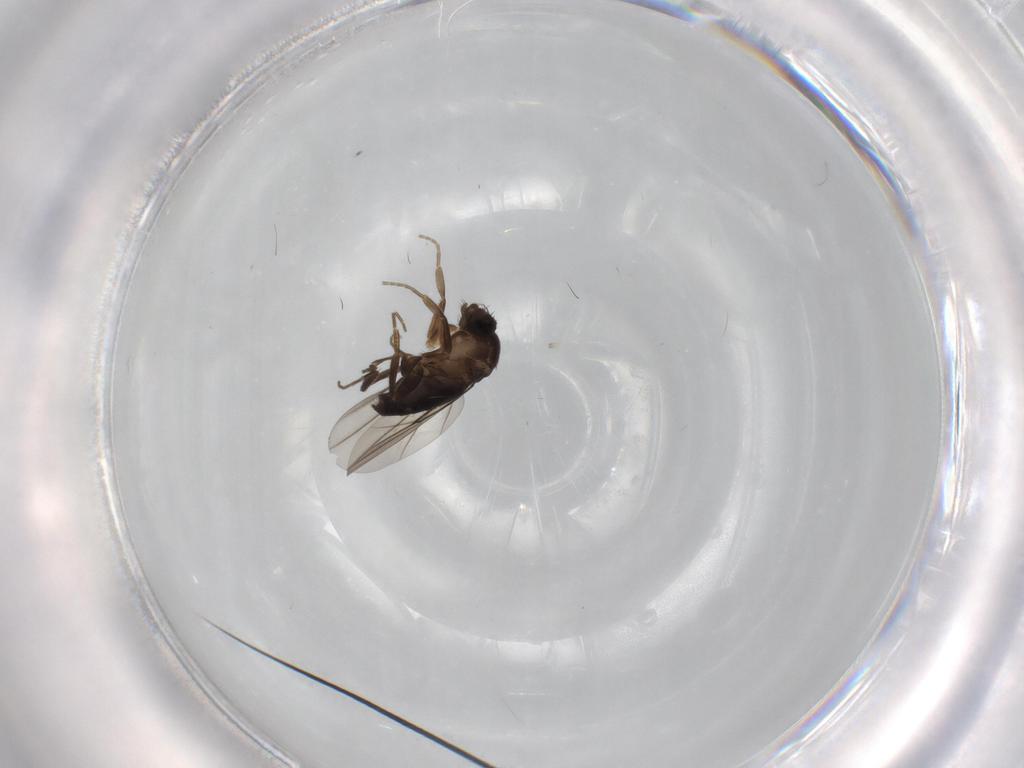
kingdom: Animalia
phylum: Arthropoda
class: Insecta
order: Diptera
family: Phoridae
